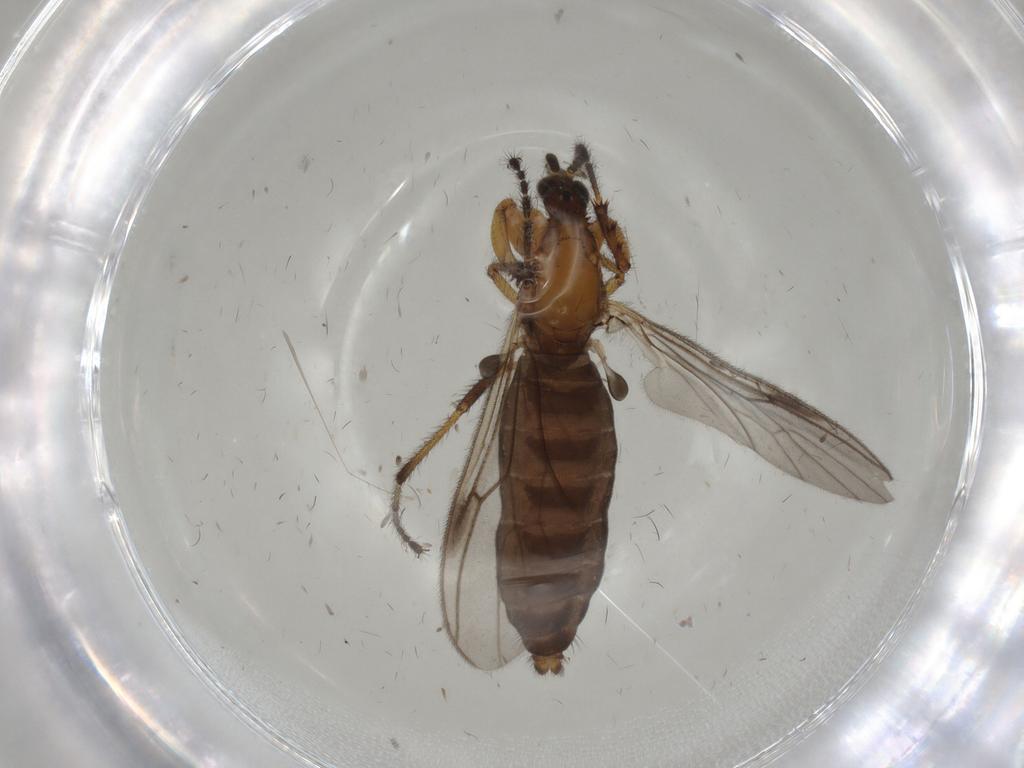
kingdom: Animalia
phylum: Arthropoda
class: Insecta
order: Diptera
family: Bibionidae
